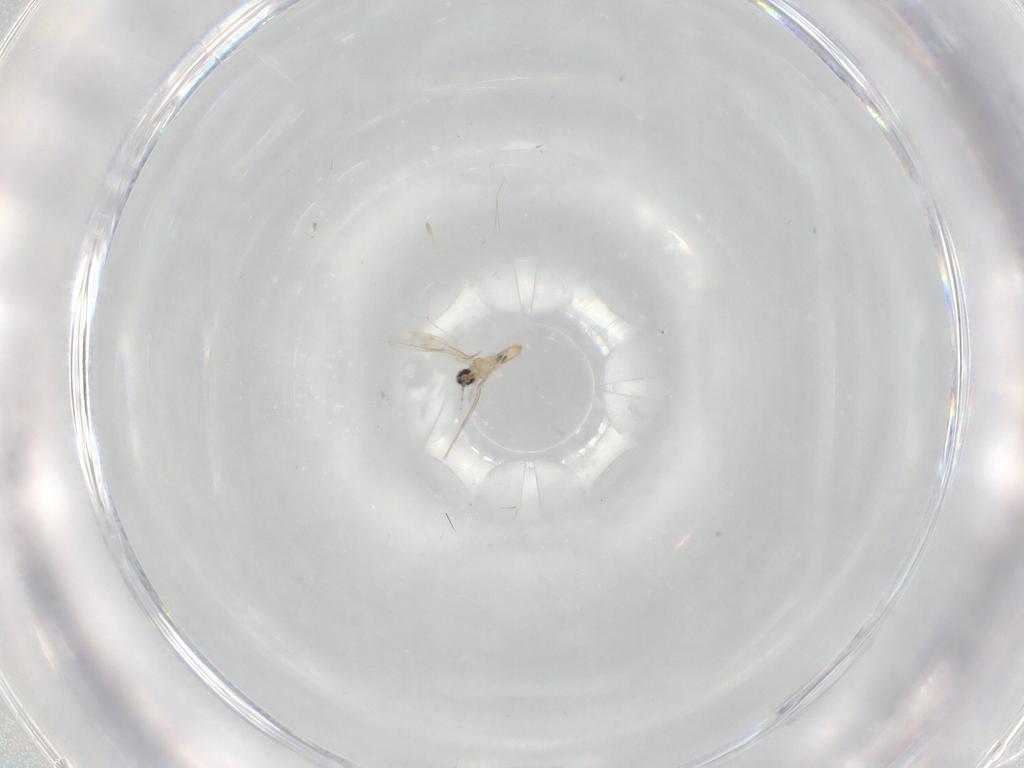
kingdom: Animalia
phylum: Arthropoda
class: Insecta
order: Diptera
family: Cecidomyiidae
